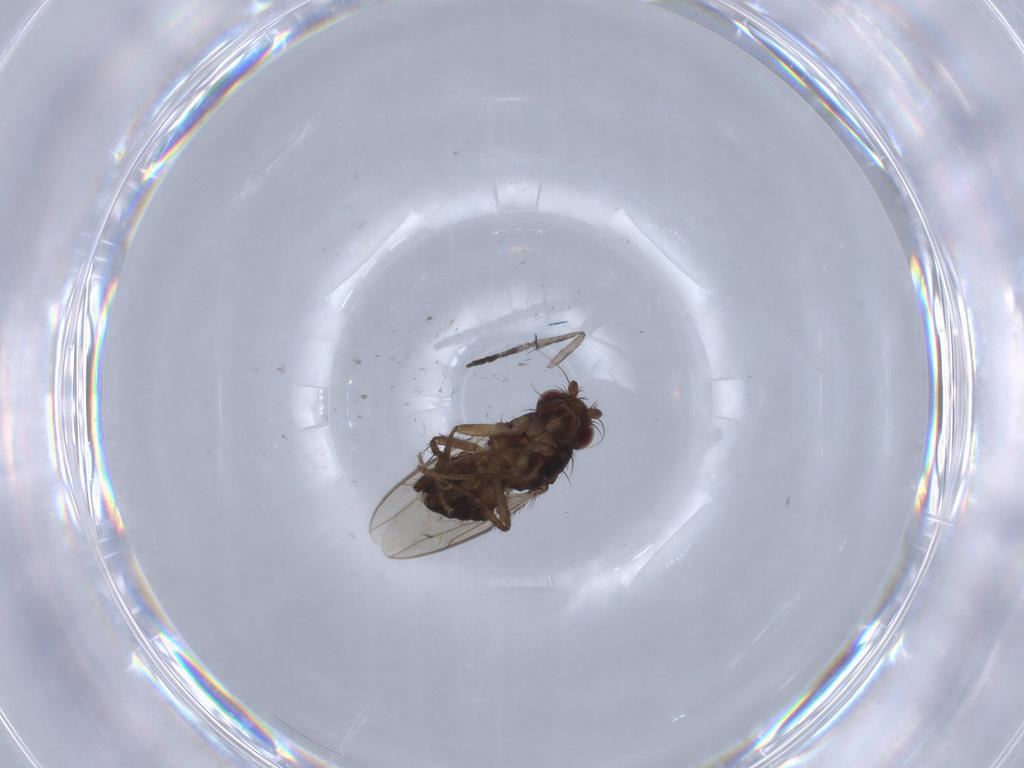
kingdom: Animalia
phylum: Arthropoda
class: Insecta
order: Diptera
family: Sphaeroceridae
